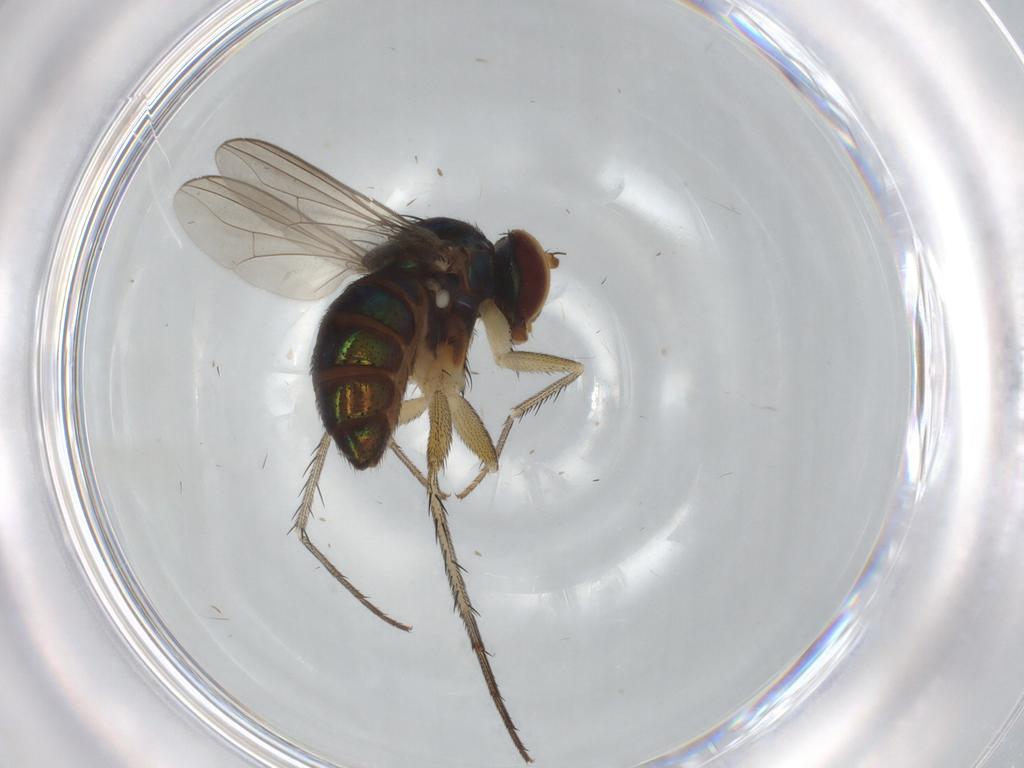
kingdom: Animalia
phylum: Arthropoda
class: Insecta
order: Diptera
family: Dolichopodidae
